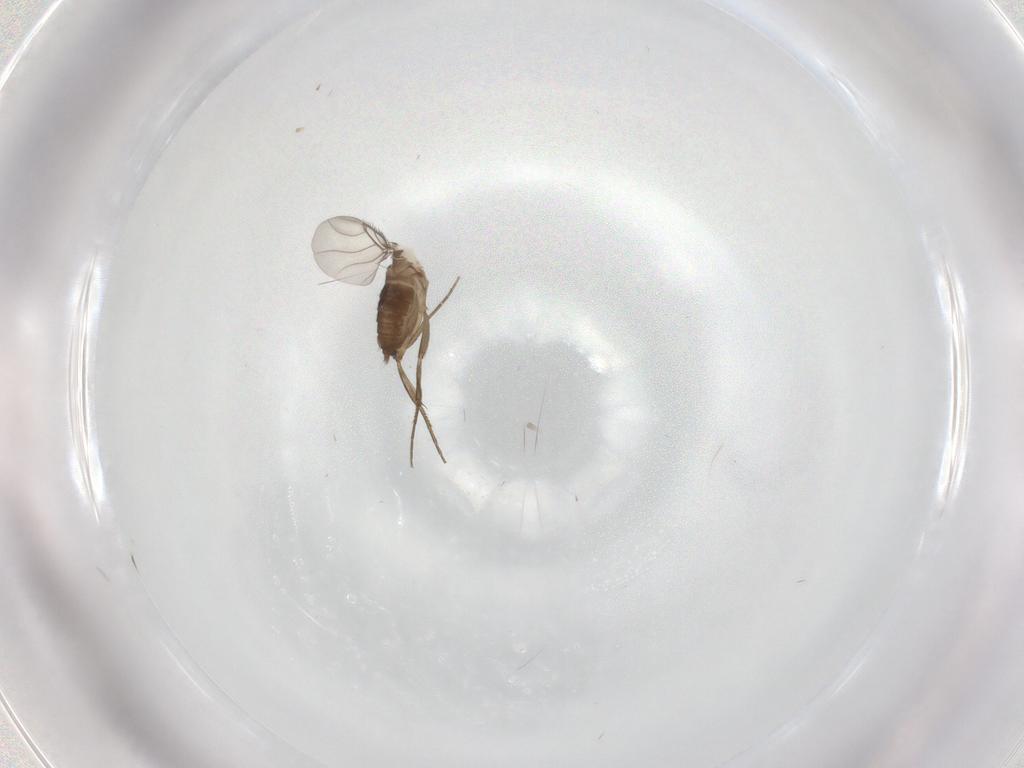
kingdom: Animalia
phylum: Arthropoda
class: Insecta
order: Diptera
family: Phoridae
